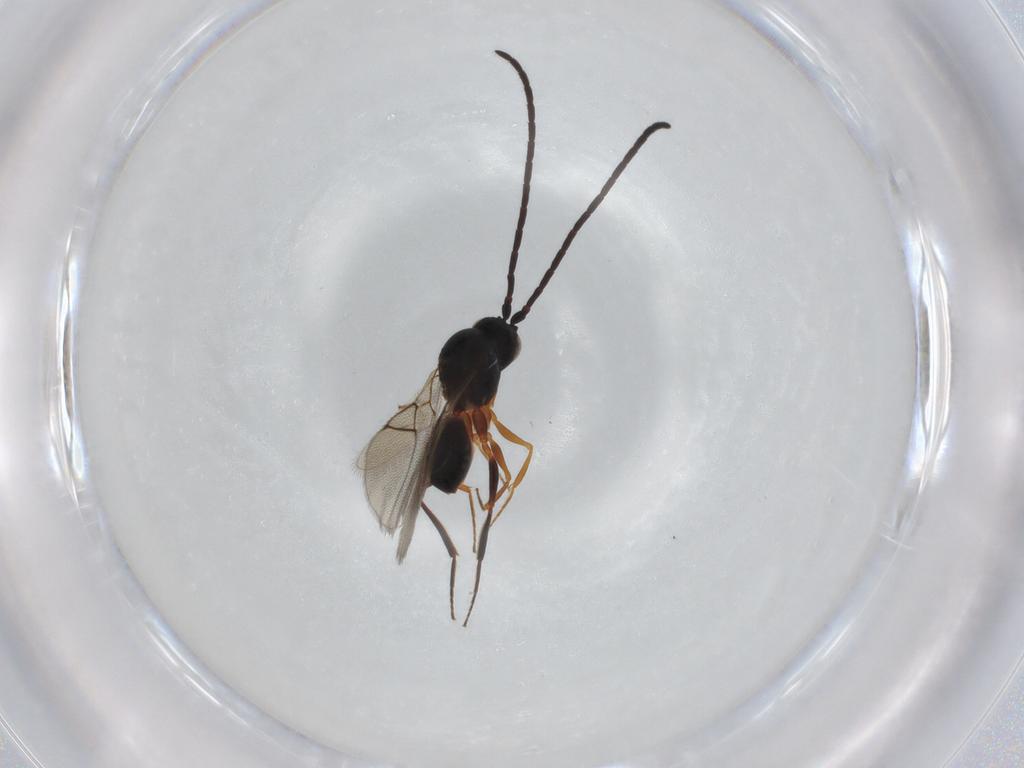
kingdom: Animalia
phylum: Arthropoda
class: Insecta
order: Hymenoptera
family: Figitidae
